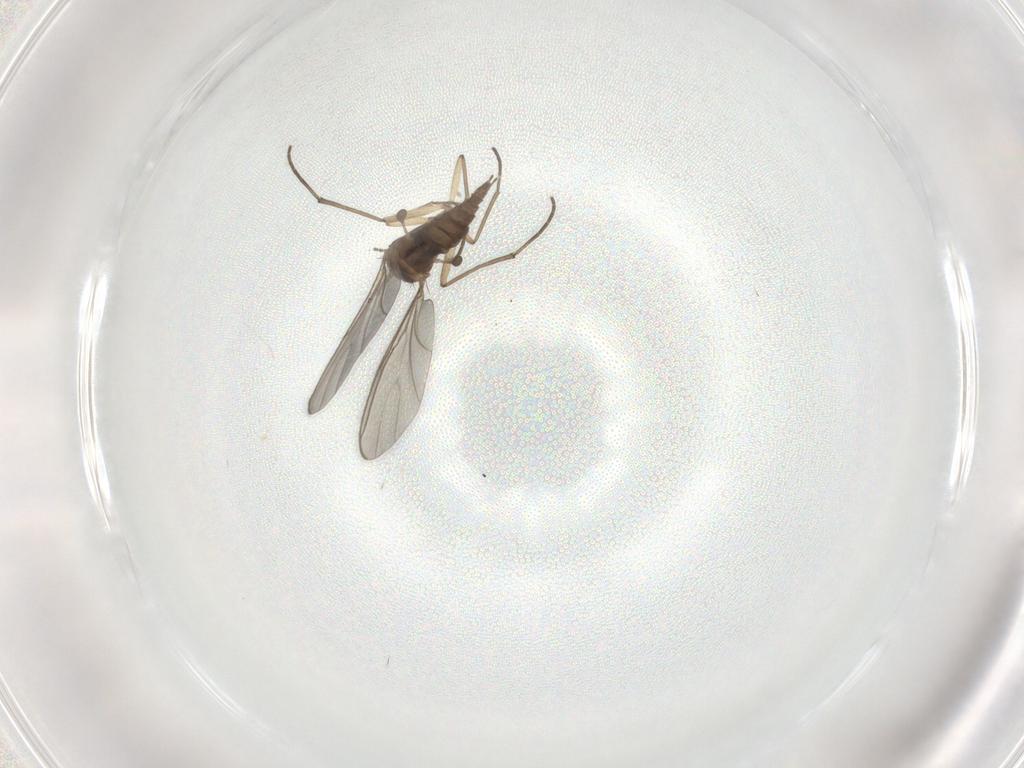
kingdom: Animalia
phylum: Arthropoda
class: Insecta
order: Diptera
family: Sciaridae
